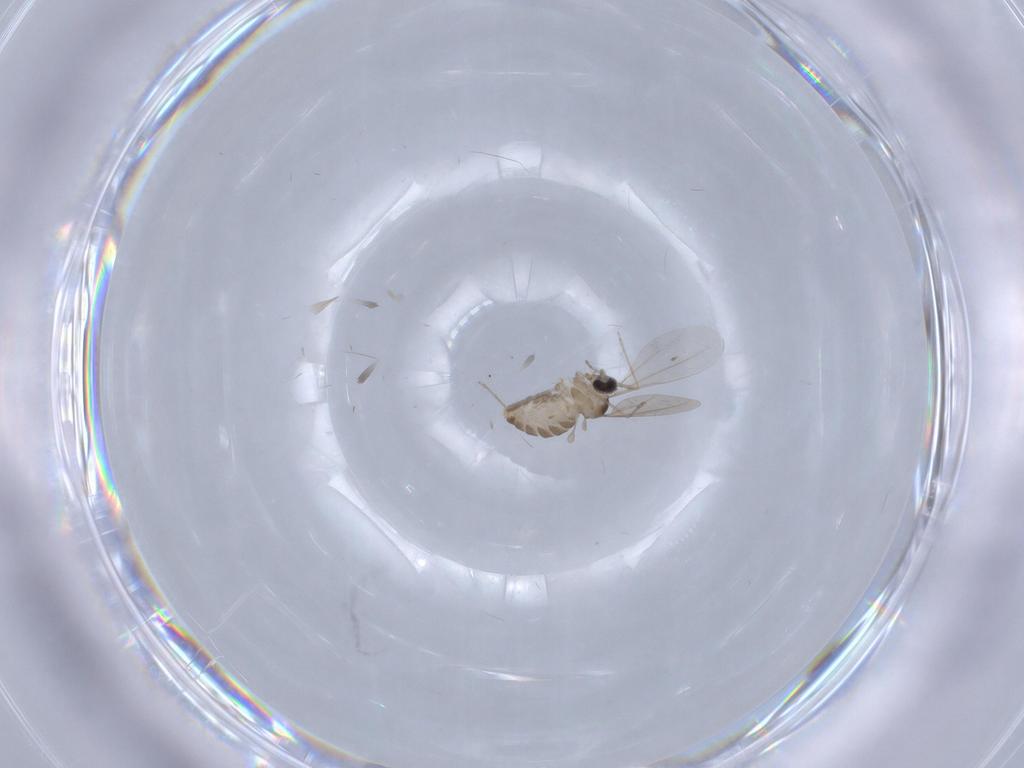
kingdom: Animalia
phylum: Arthropoda
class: Insecta
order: Diptera
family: Cecidomyiidae
